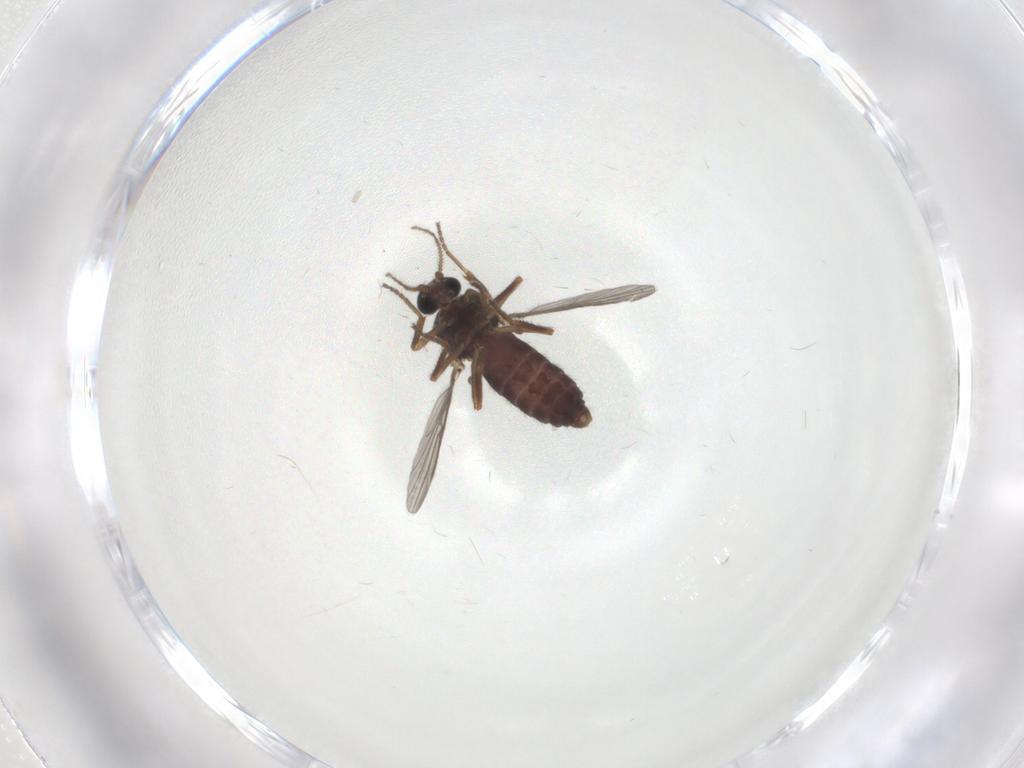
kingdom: Animalia
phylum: Arthropoda
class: Insecta
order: Diptera
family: Ceratopogonidae
